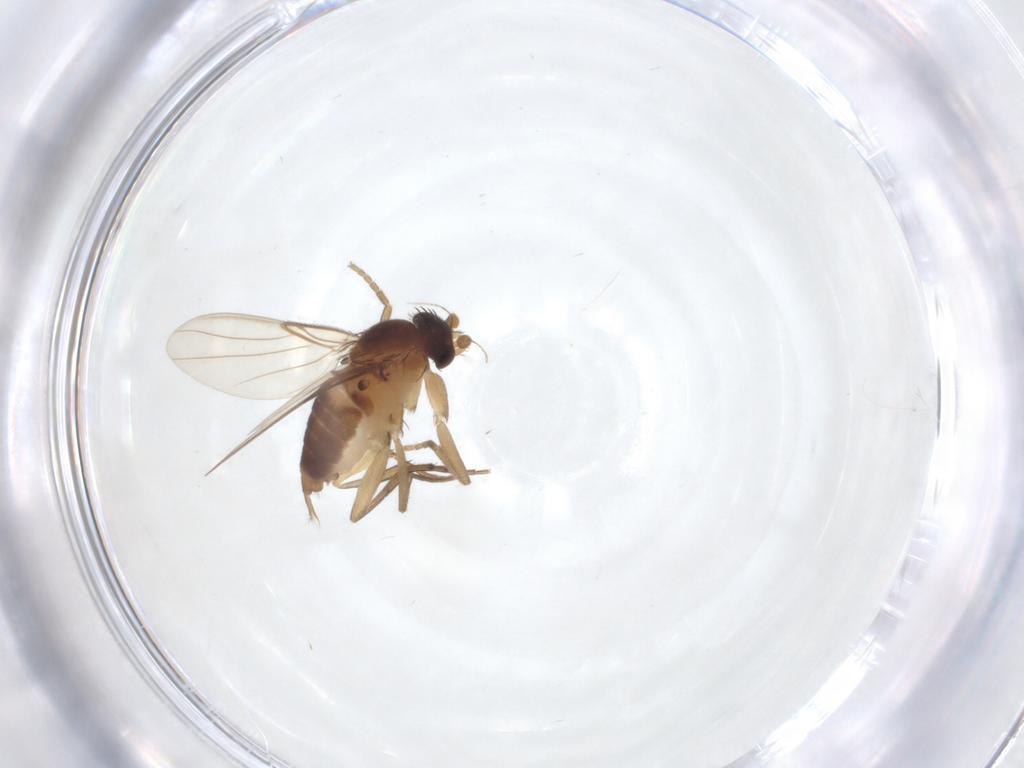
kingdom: Animalia
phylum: Arthropoda
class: Insecta
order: Diptera
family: Phoridae
